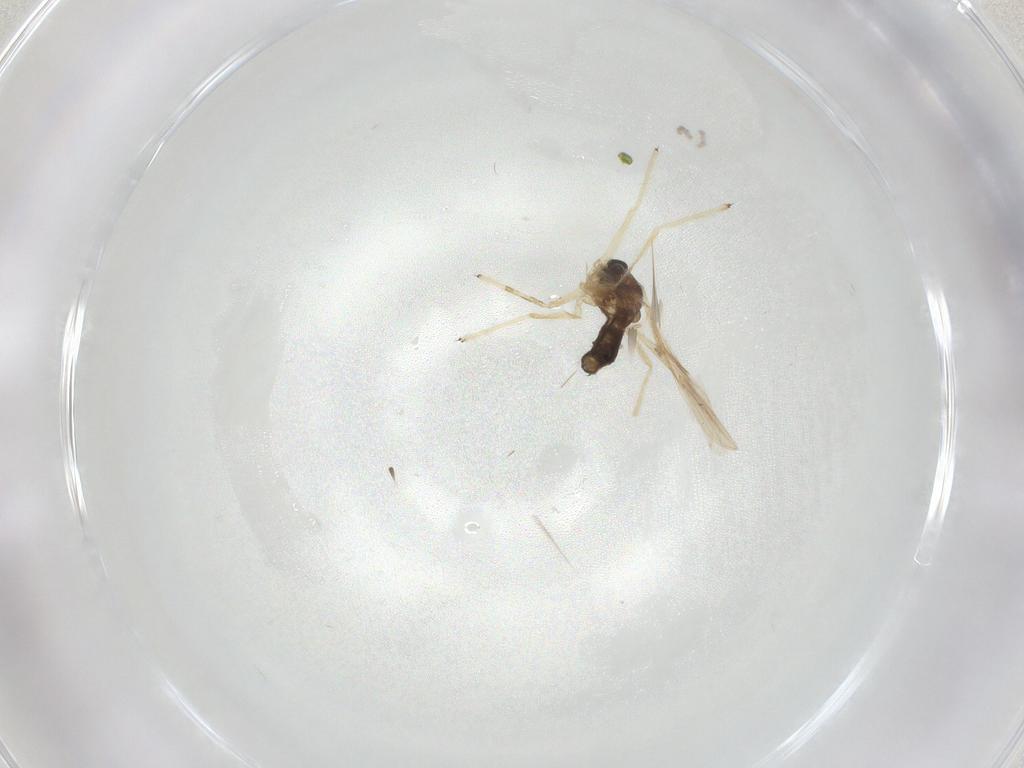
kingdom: Animalia
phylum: Arthropoda
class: Insecta
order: Diptera
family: Chironomidae
